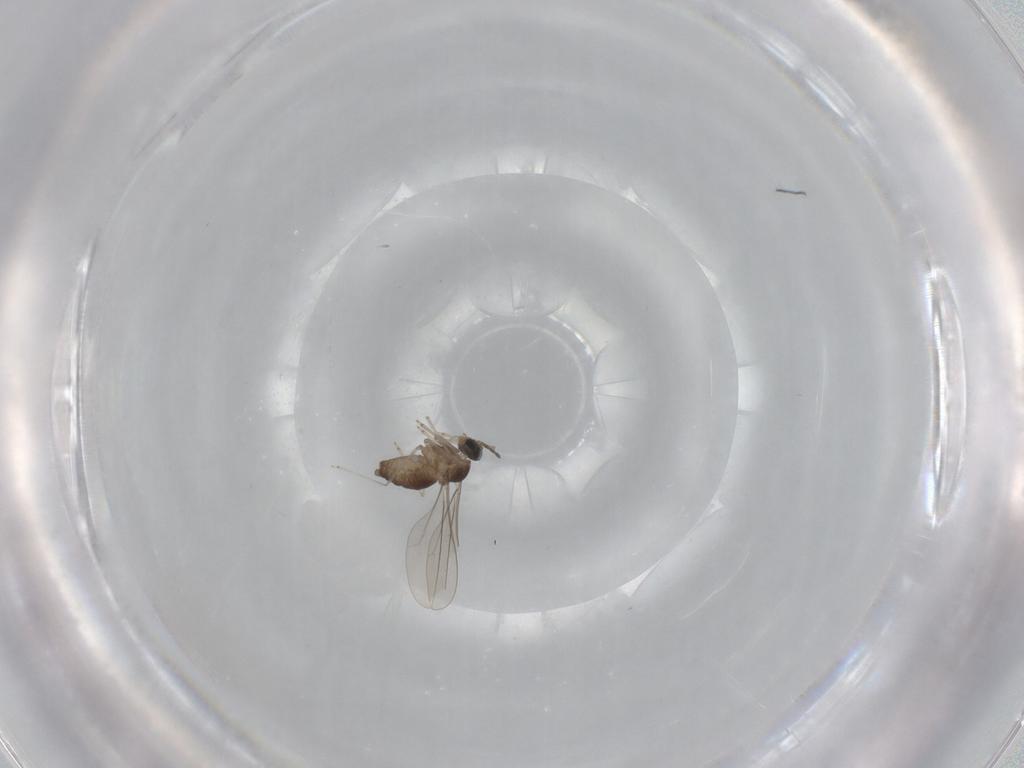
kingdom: Animalia
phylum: Arthropoda
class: Insecta
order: Diptera
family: Cecidomyiidae
